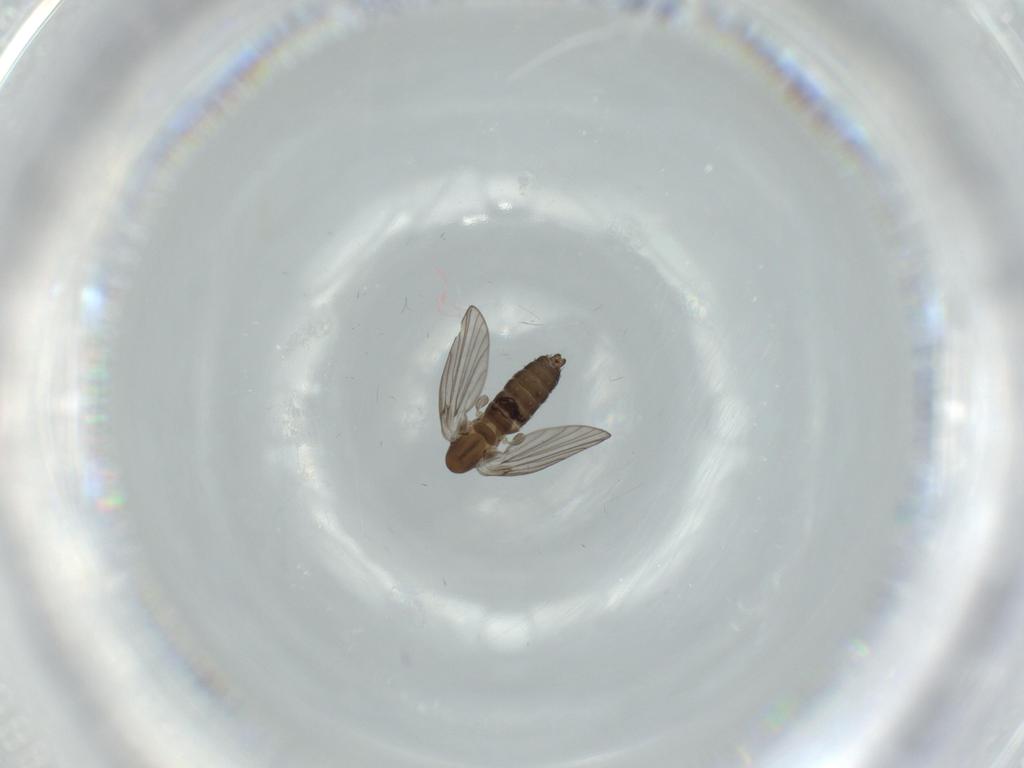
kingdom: Animalia
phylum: Arthropoda
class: Insecta
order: Diptera
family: Psychodidae
